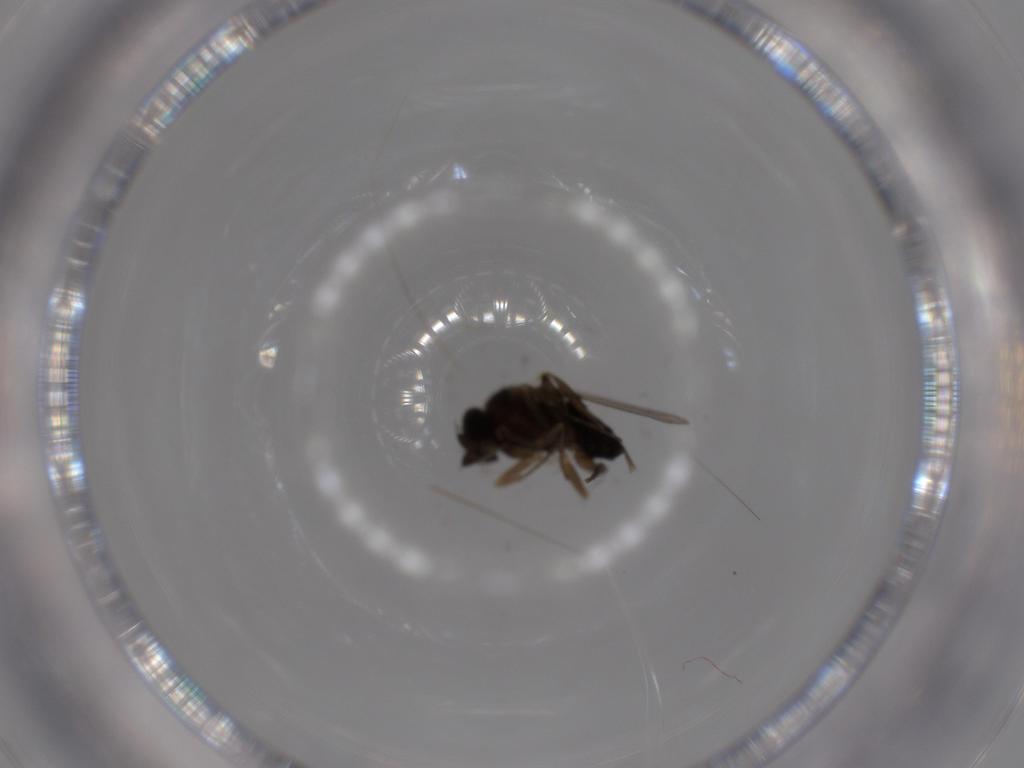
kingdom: Animalia
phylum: Arthropoda
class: Insecta
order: Diptera
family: Phoridae
